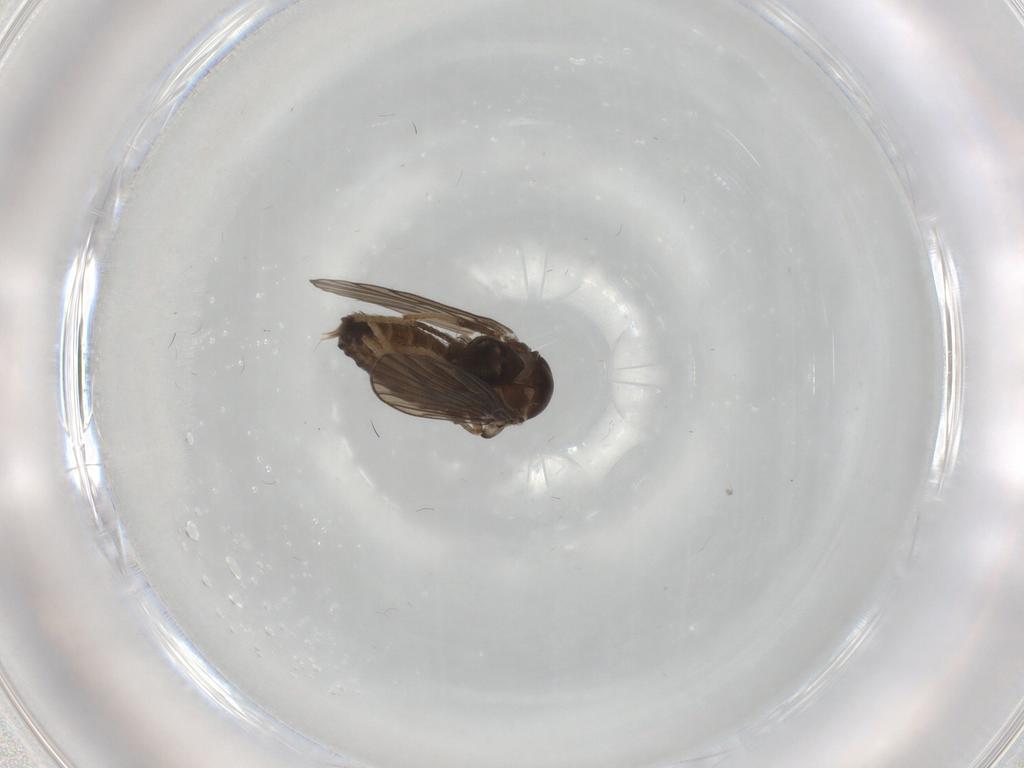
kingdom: Animalia
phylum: Arthropoda
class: Insecta
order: Diptera
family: Psychodidae
